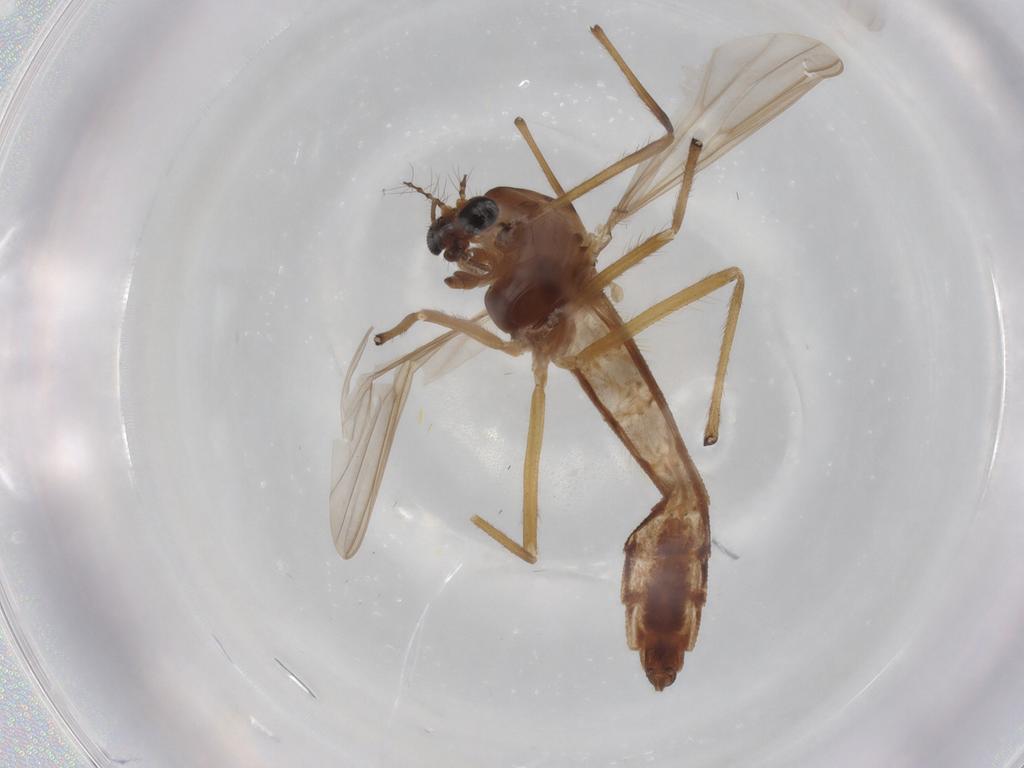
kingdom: Animalia
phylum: Arthropoda
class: Insecta
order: Diptera
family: Chironomidae
